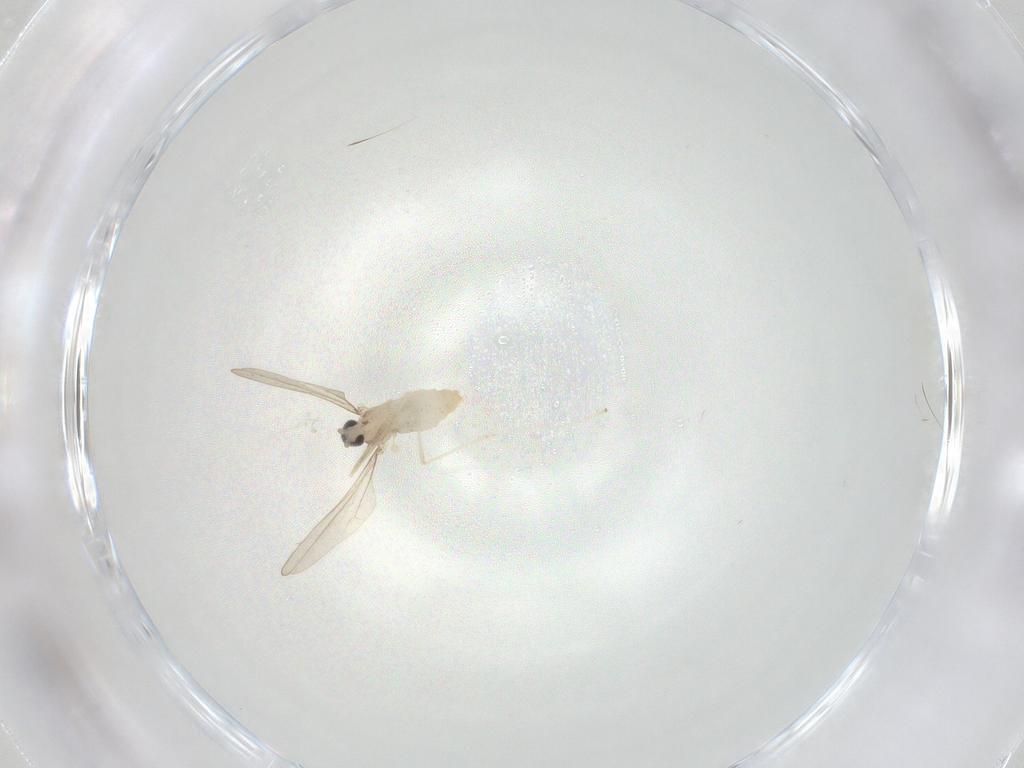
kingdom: Animalia
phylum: Arthropoda
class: Insecta
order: Diptera
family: Cecidomyiidae
